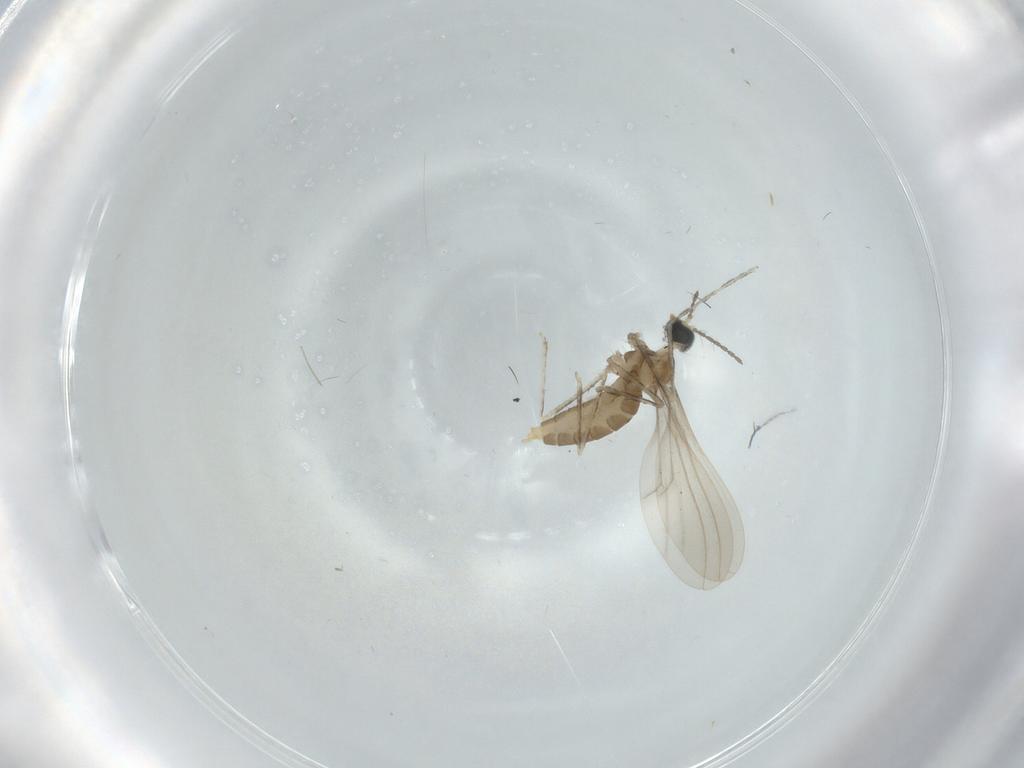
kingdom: Animalia
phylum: Arthropoda
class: Insecta
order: Diptera
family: Cecidomyiidae
